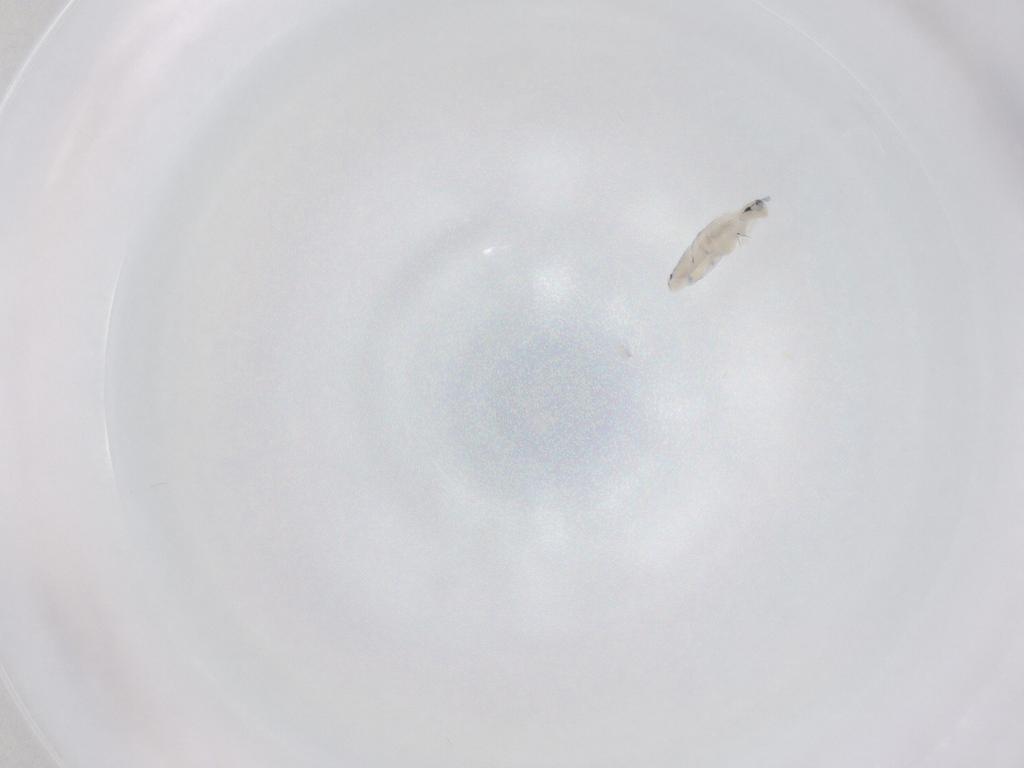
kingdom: Animalia
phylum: Arthropoda
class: Collembola
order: Entomobryomorpha
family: Entomobryidae
